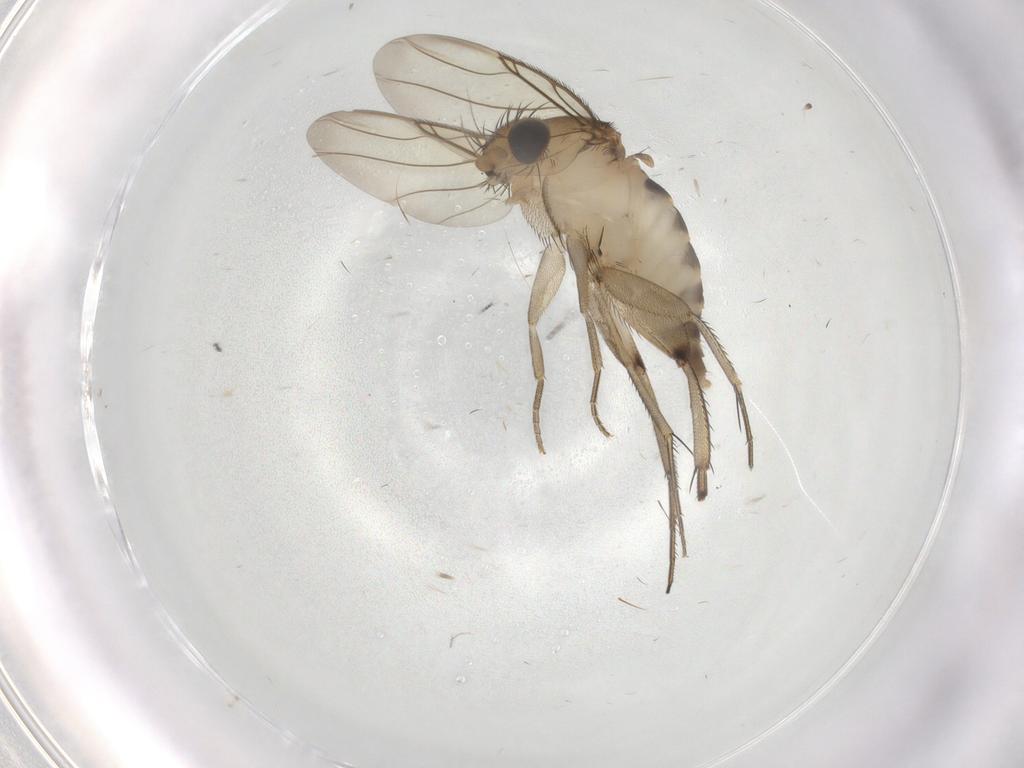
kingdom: Animalia
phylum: Arthropoda
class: Insecta
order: Diptera
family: Phoridae
